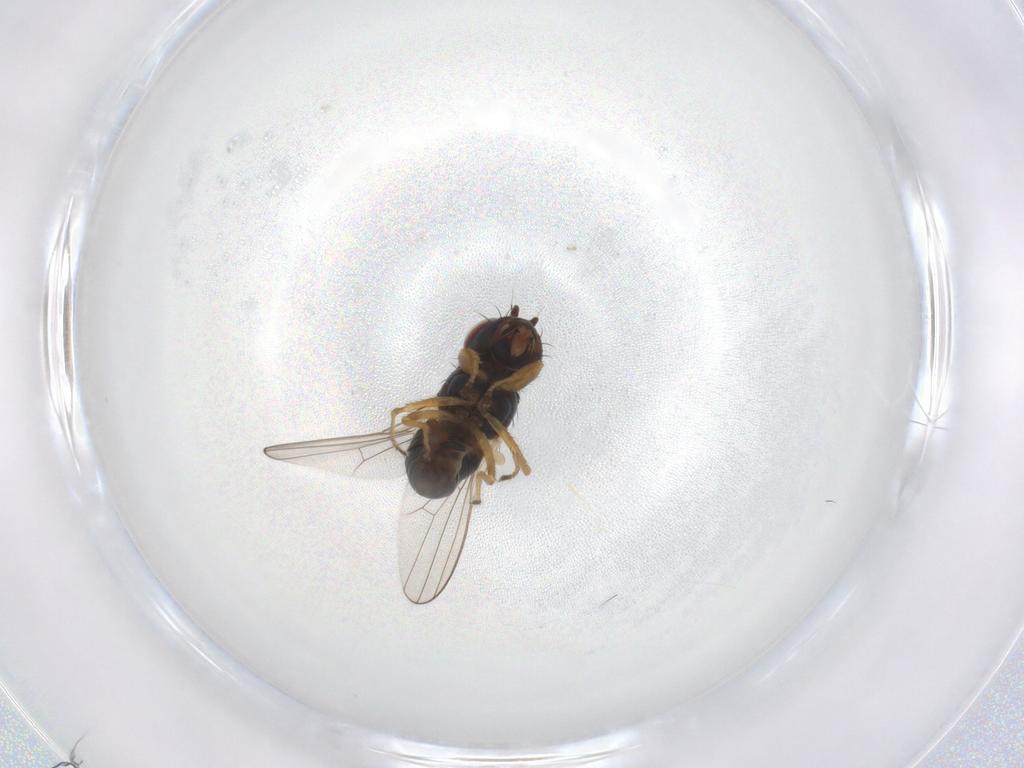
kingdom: Animalia
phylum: Arthropoda
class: Insecta
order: Diptera
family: Canacidae
